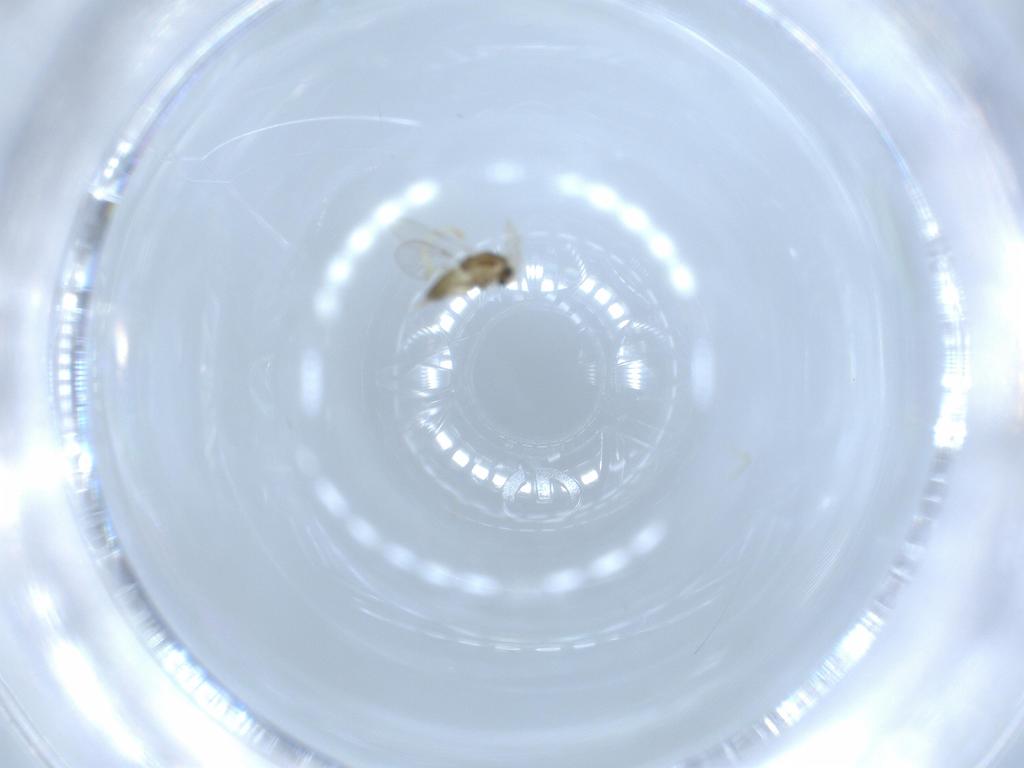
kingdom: Animalia
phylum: Arthropoda
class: Insecta
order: Diptera
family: Chironomidae
